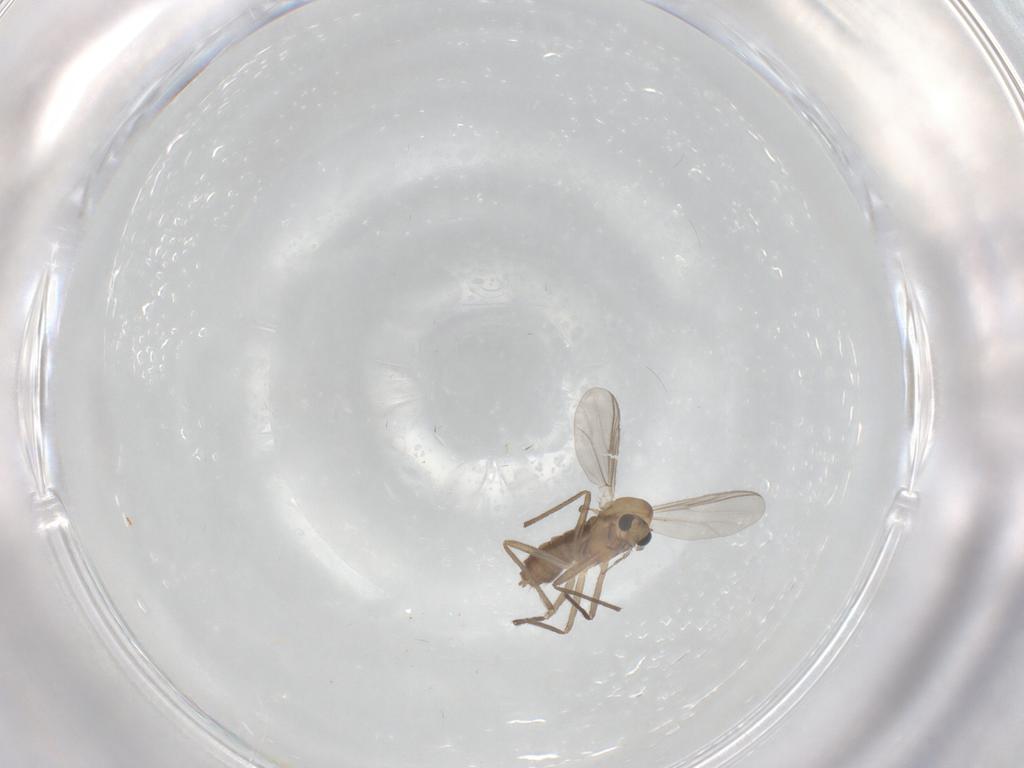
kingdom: Animalia
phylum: Arthropoda
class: Insecta
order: Diptera
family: Chironomidae
